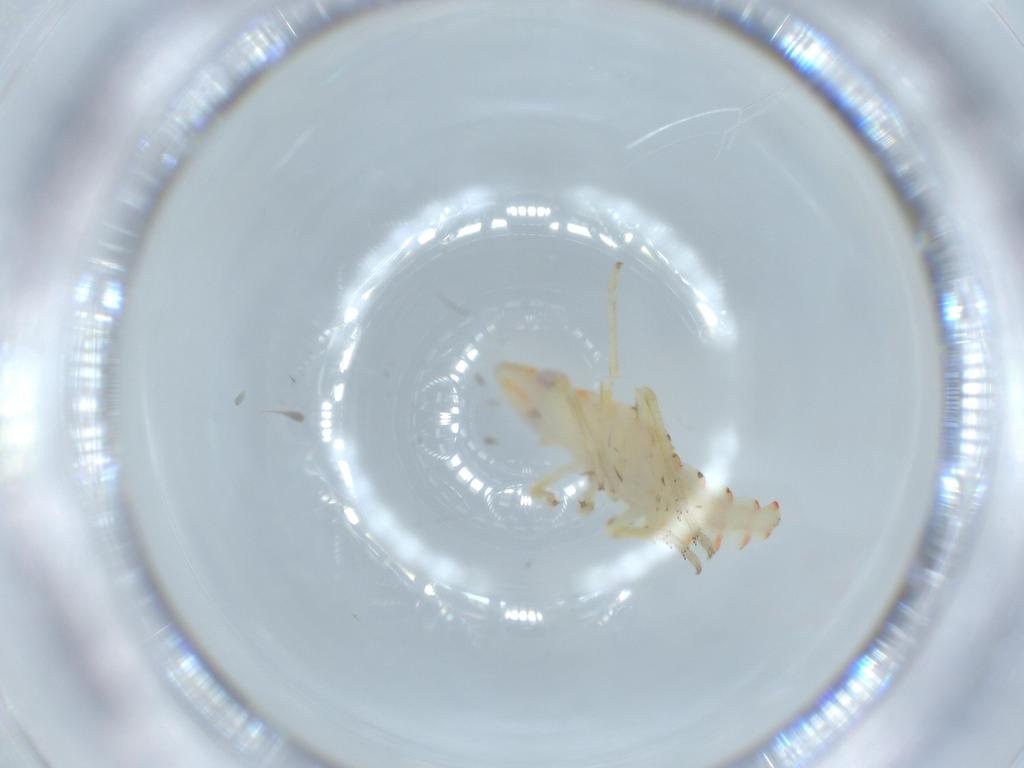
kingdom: Animalia
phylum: Arthropoda
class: Insecta
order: Hemiptera
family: Tropiduchidae
